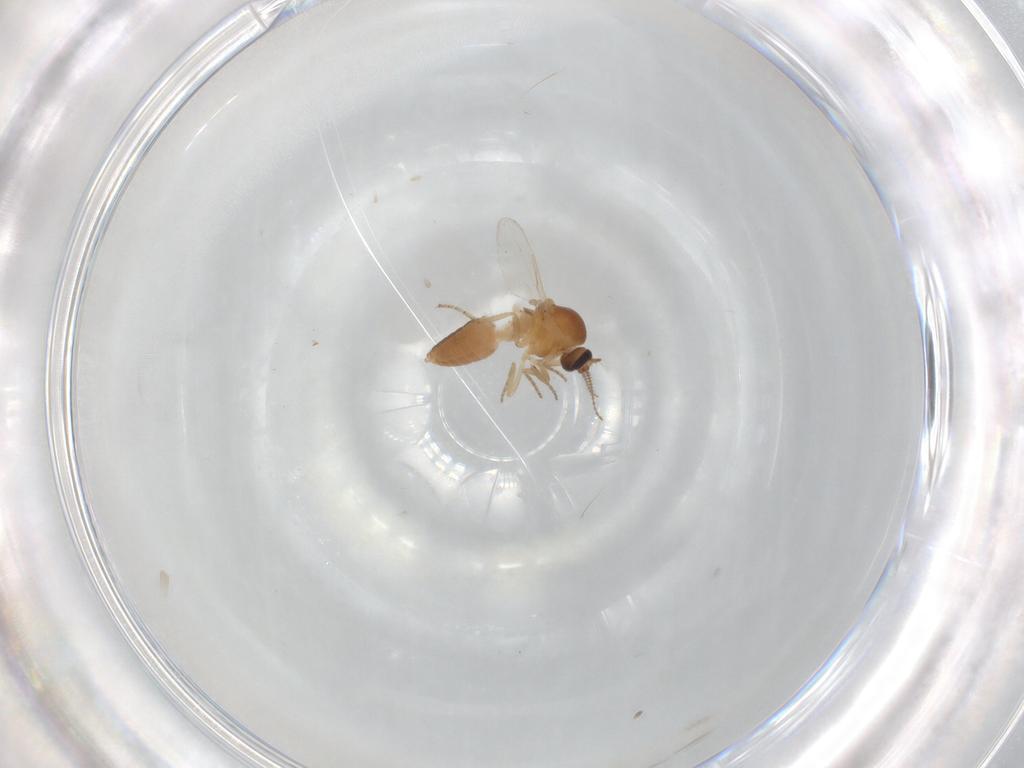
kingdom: Animalia
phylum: Arthropoda
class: Insecta
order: Diptera
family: Ceratopogonidae
